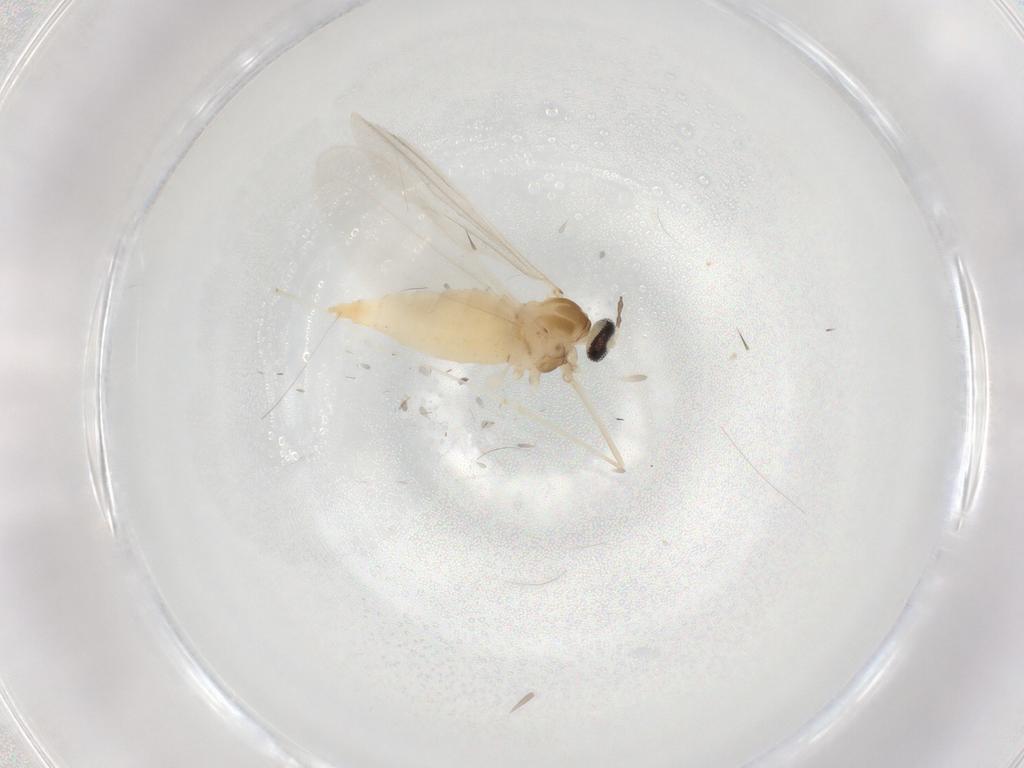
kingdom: Animalia
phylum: Arthropoda
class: Insecta
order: Diptera
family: Cecidomyiidae
